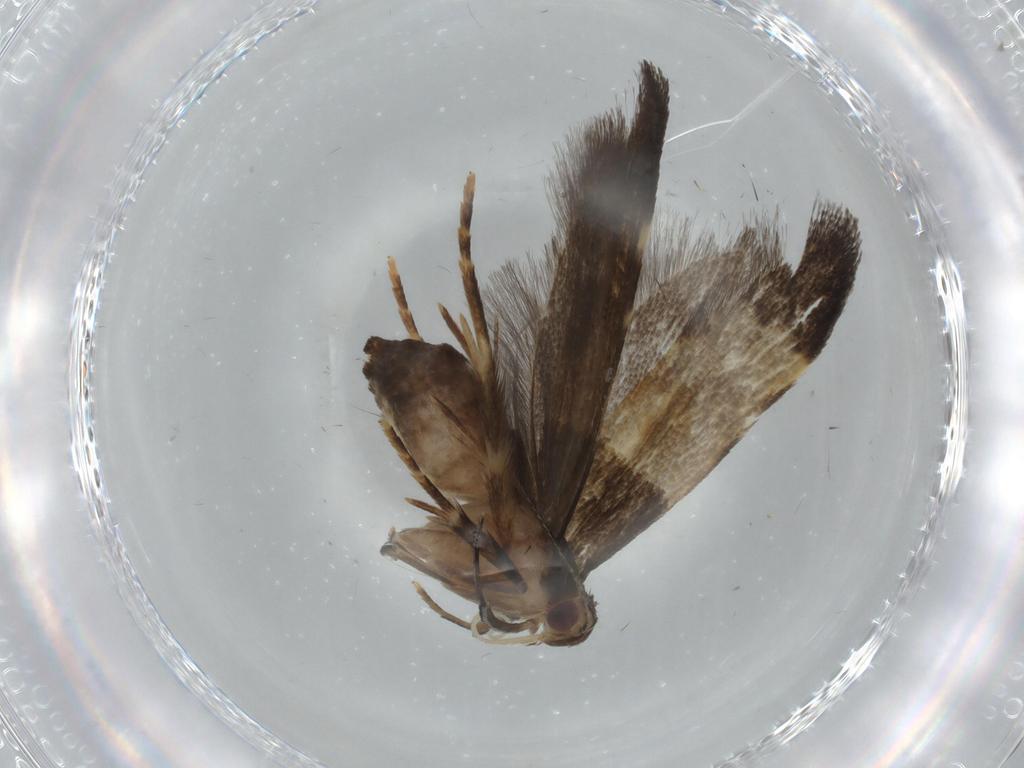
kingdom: Animalia
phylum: Arthropoda
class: Insecta
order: Lepidoptera
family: Cosmopterigidae
